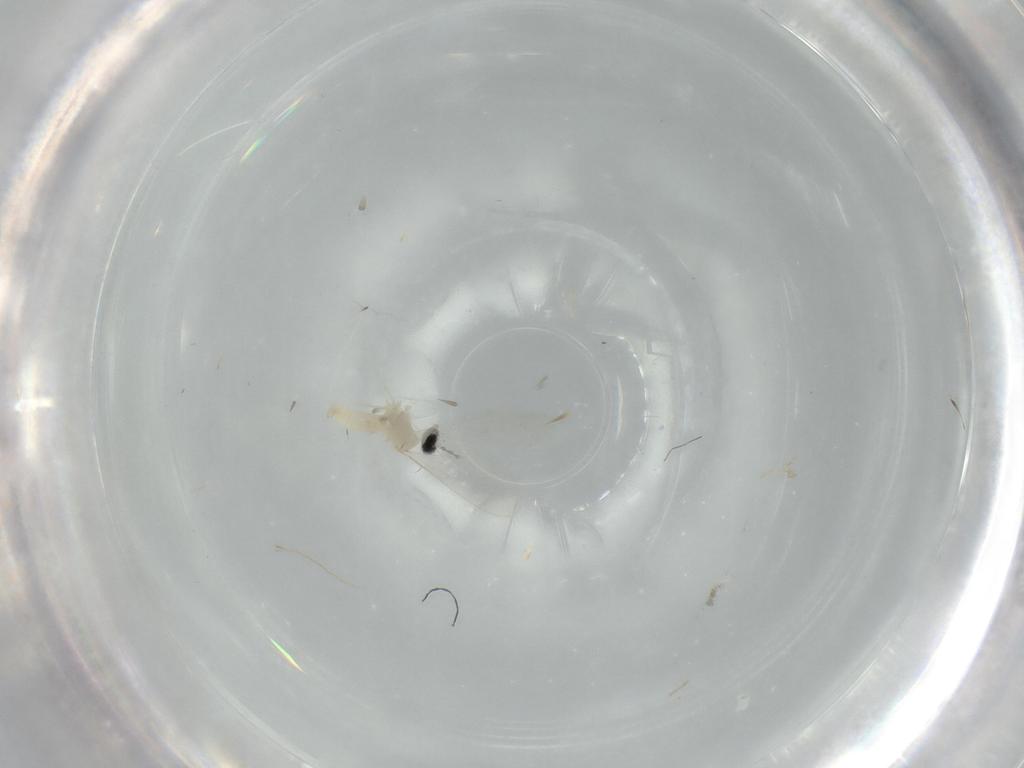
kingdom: Animalia
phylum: Arthropoda
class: Insecta
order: Diptera
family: Cecidomyiidae
